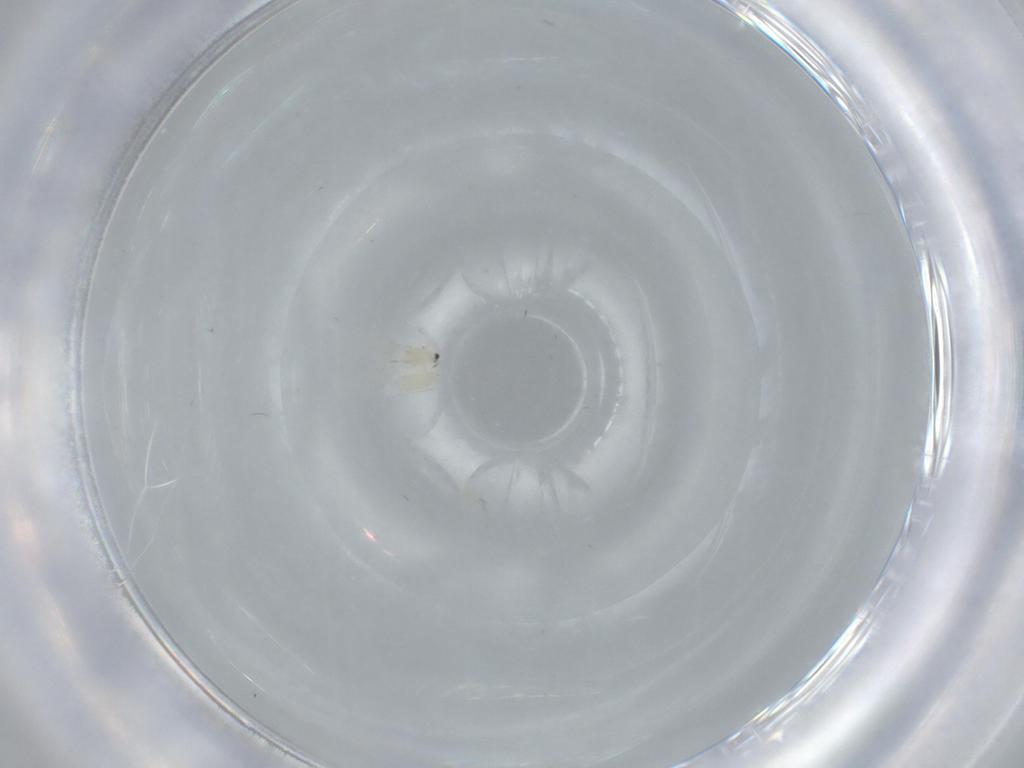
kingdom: Animalia
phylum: Arthropoda
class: Insecta
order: Thysanoptera
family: Thripidae
